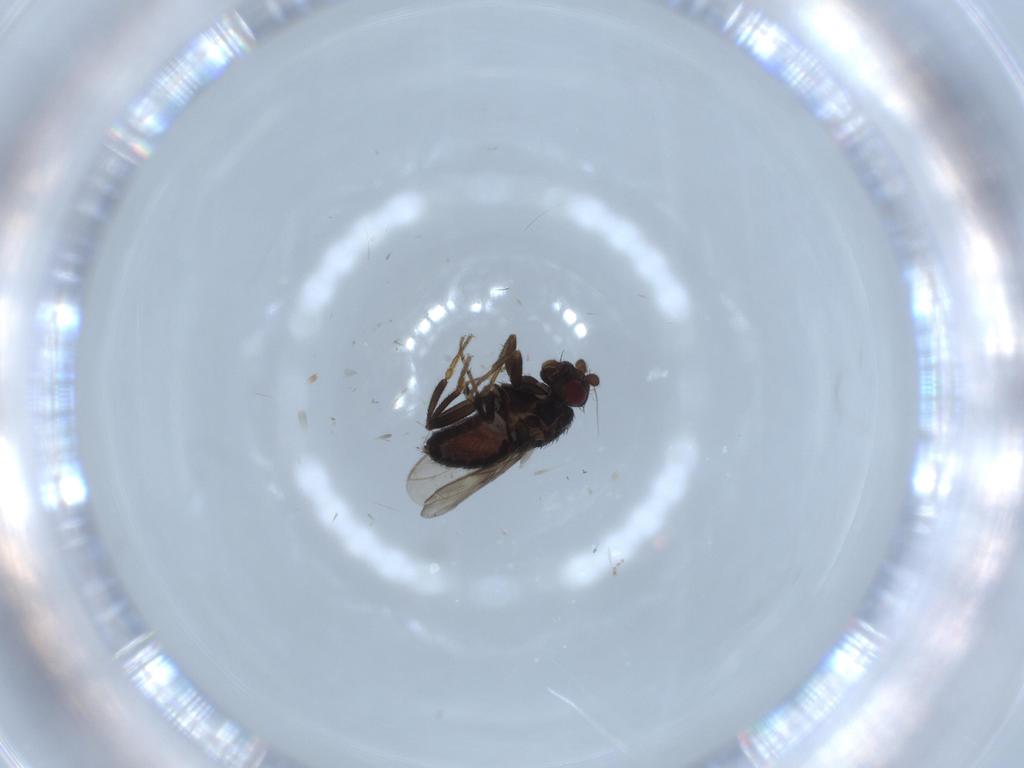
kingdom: Animalia
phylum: Arthropoda
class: Insecta
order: Diptera
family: Sphaeroceridae
